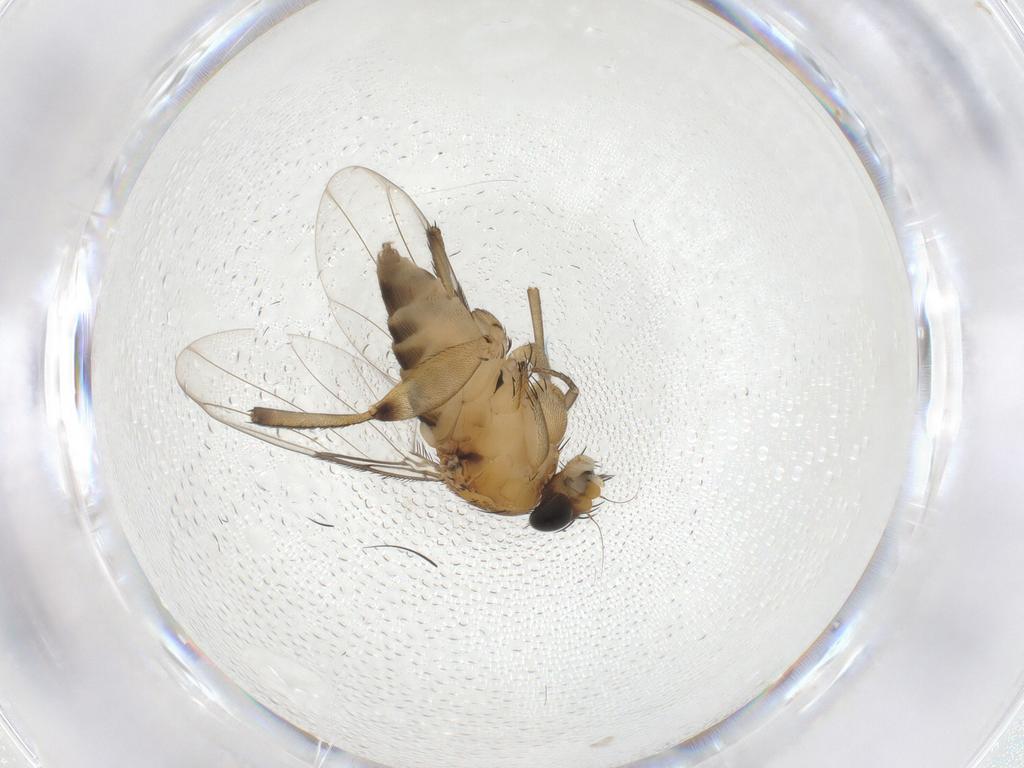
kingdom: Animalia
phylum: Arthropoda
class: Insecta
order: Diptera
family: Phoridae
